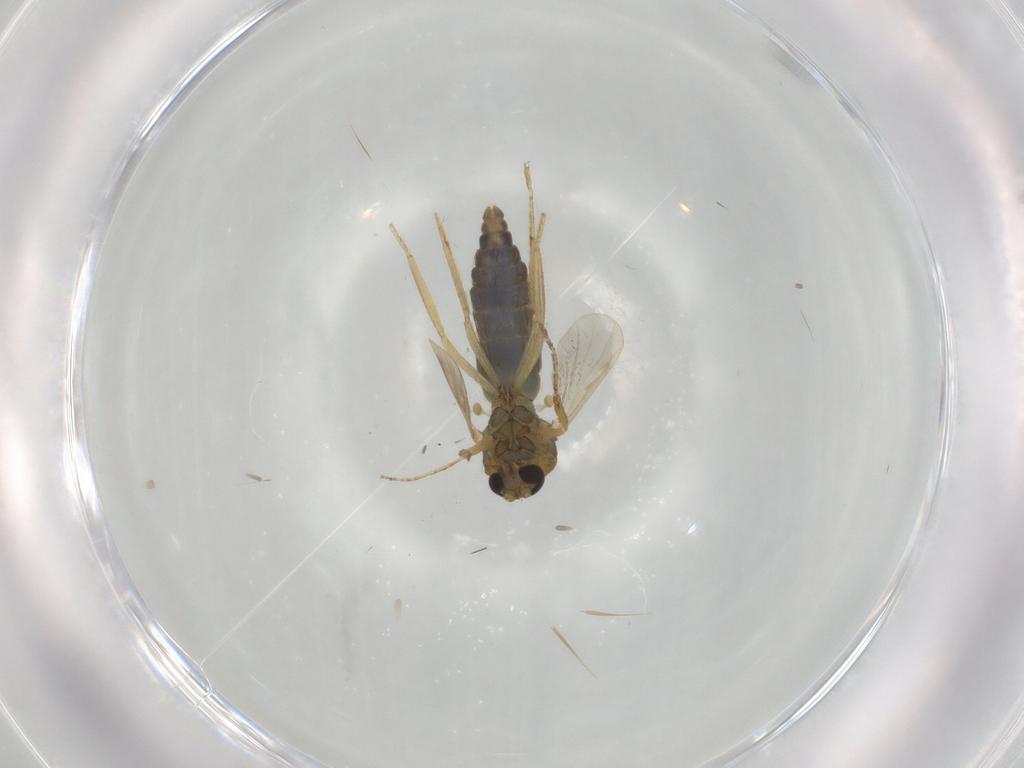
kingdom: Animalia
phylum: Arthropoda
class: Insecta
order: Diptera
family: Ceratopogonidae
